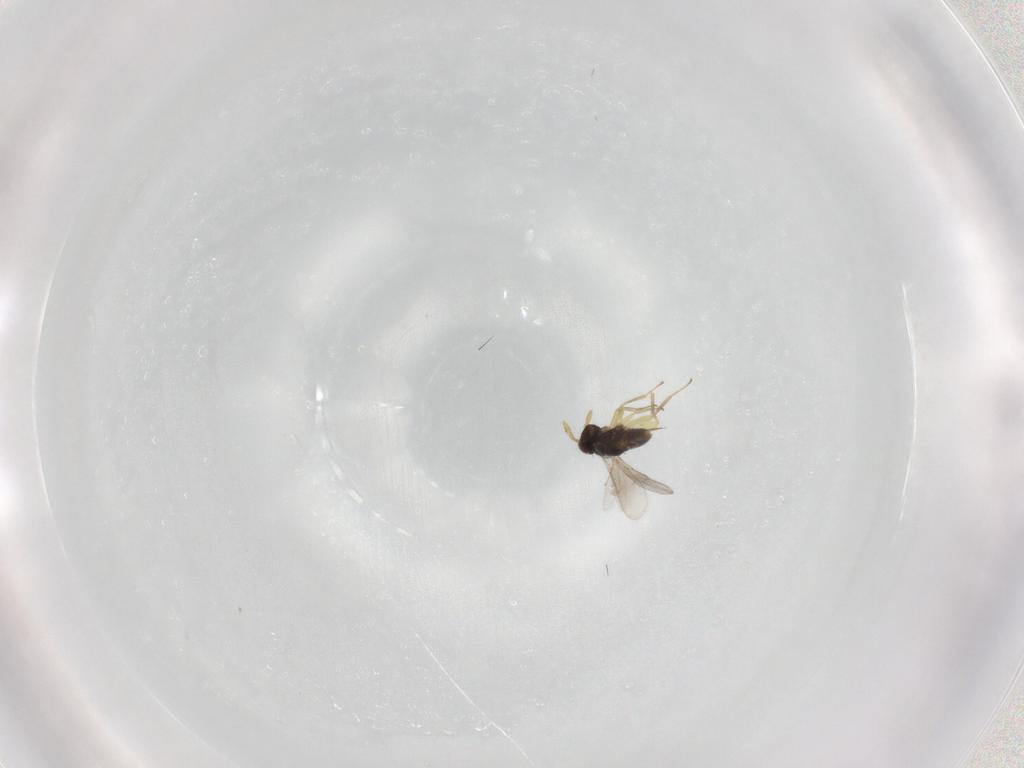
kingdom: Animalia
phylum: Arthropoda
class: Insecta
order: Hymenoptera
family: Aphelinidae
